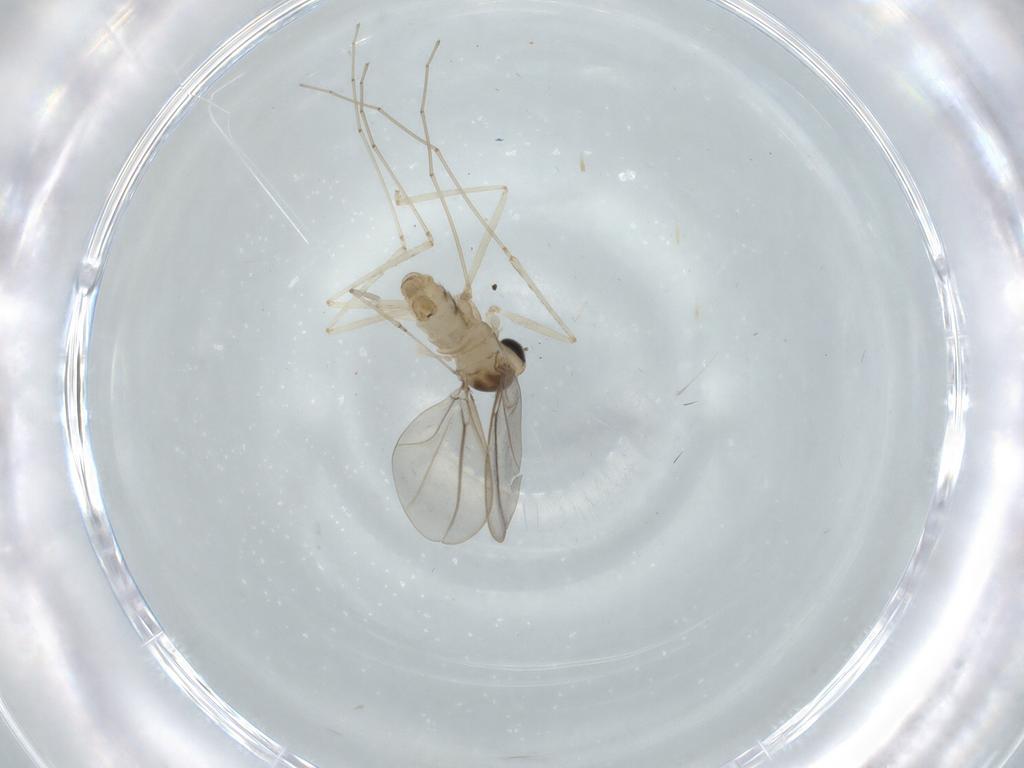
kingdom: Animalia
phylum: Arthropoda
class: Insecta
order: Diptera
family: Cecidomyiidae
